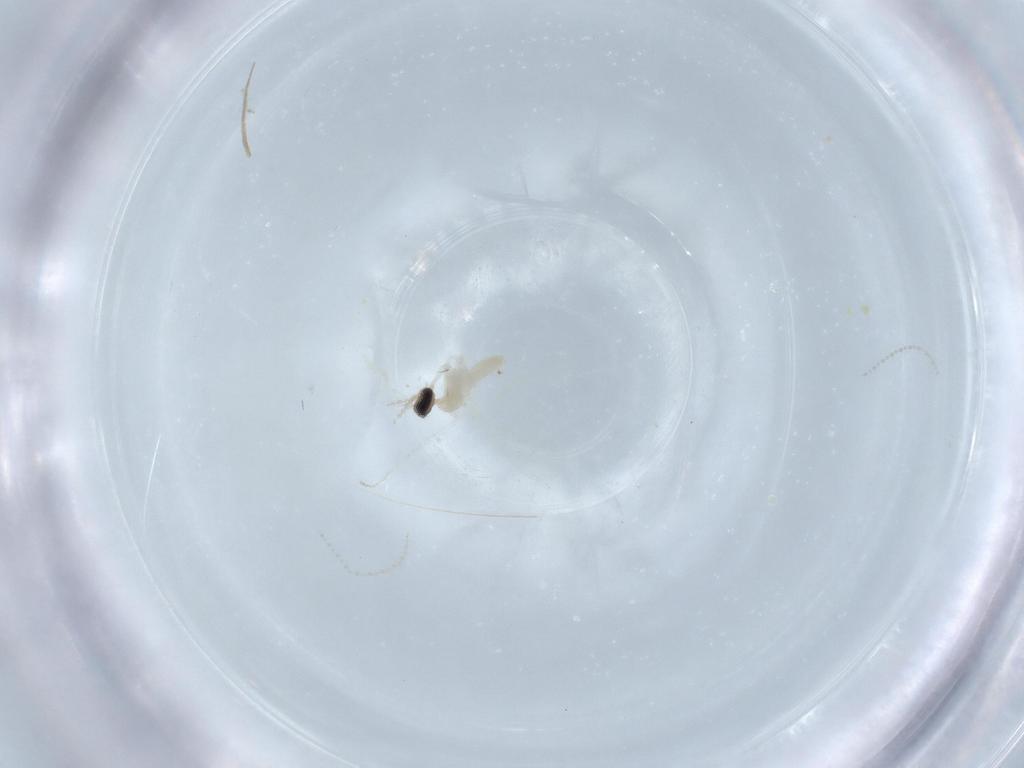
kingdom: Animalia
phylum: Arthropoda
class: Insecta
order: Diptera
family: Cecidomyiidae
